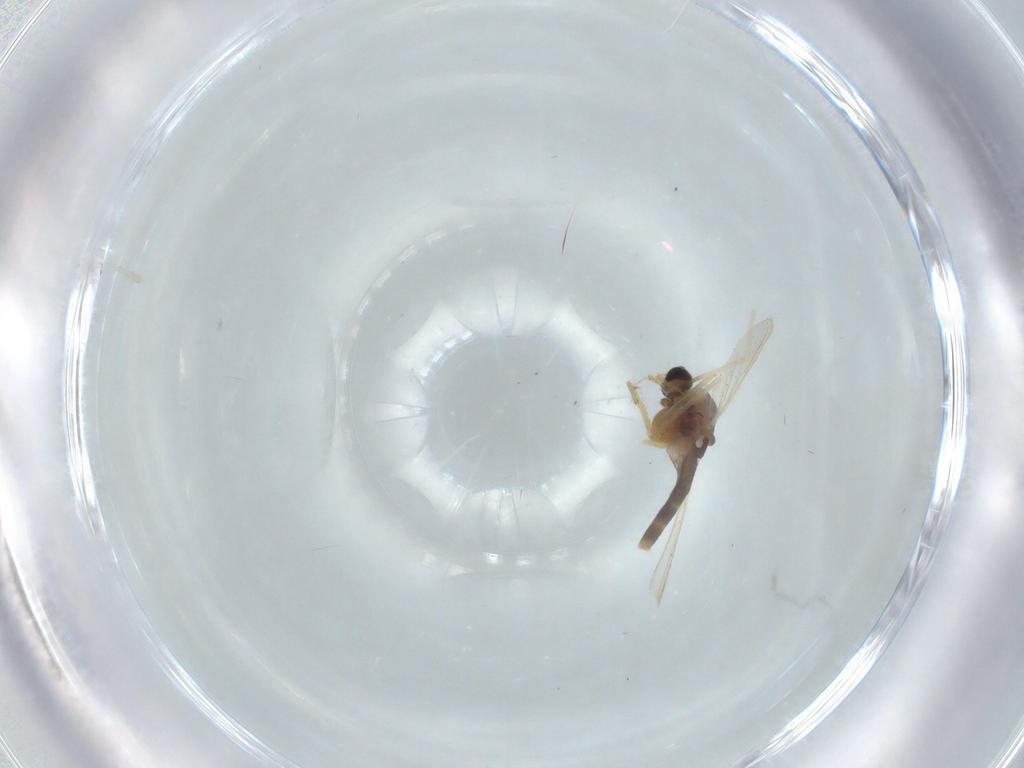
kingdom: Animalia
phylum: Arthropoda
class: Insecta
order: Diptera
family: Chironomidae
